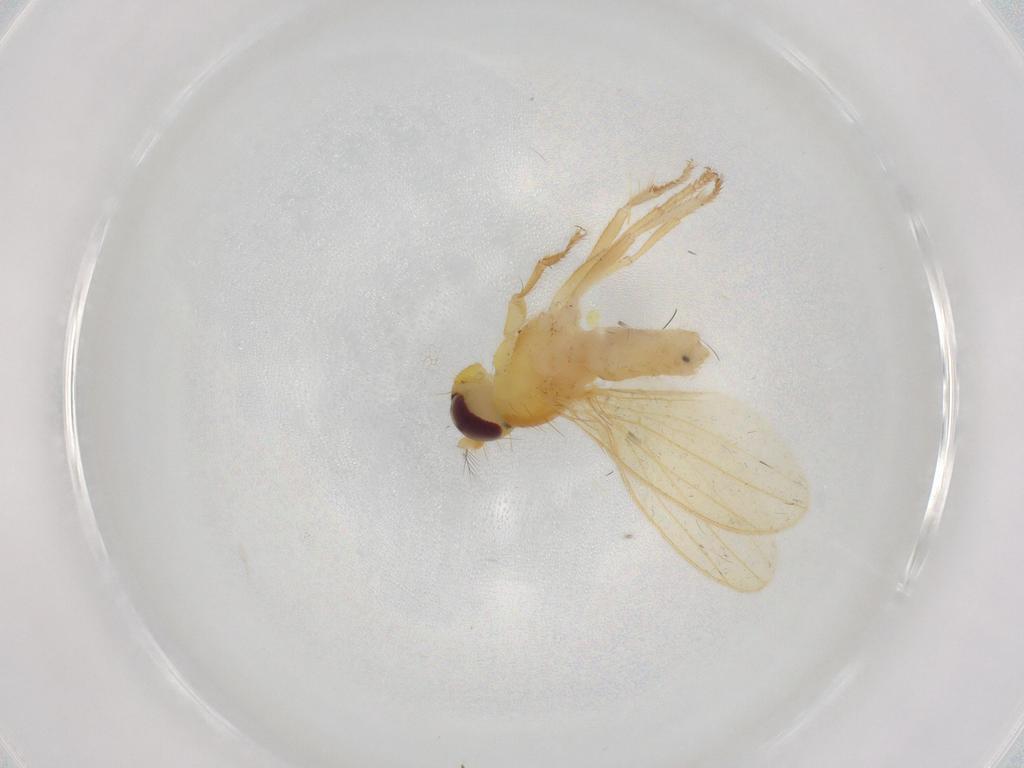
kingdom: Animalia
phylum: Arthropoda
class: Insecta
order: Diptera
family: Periscelididae
